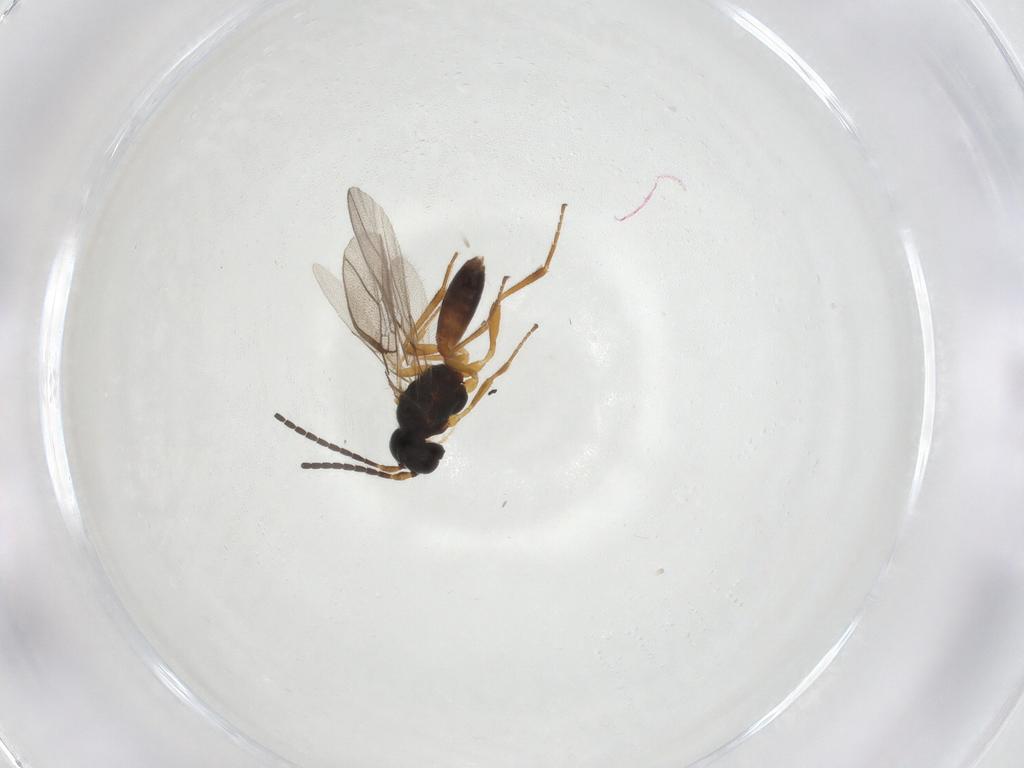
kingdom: Animalia
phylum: Arthropoda
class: Insecta
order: Hymenoptera
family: Braconidae
